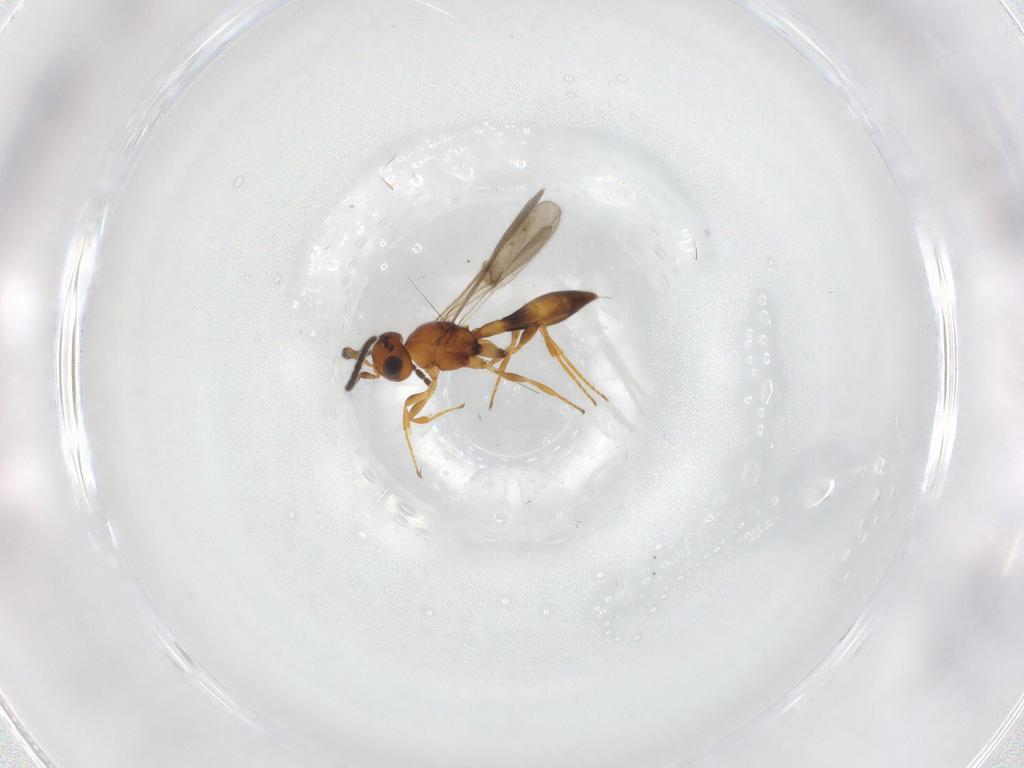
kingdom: Animalia
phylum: Arthropoda
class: Insecta
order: Hymenoptera
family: Scelionidae
